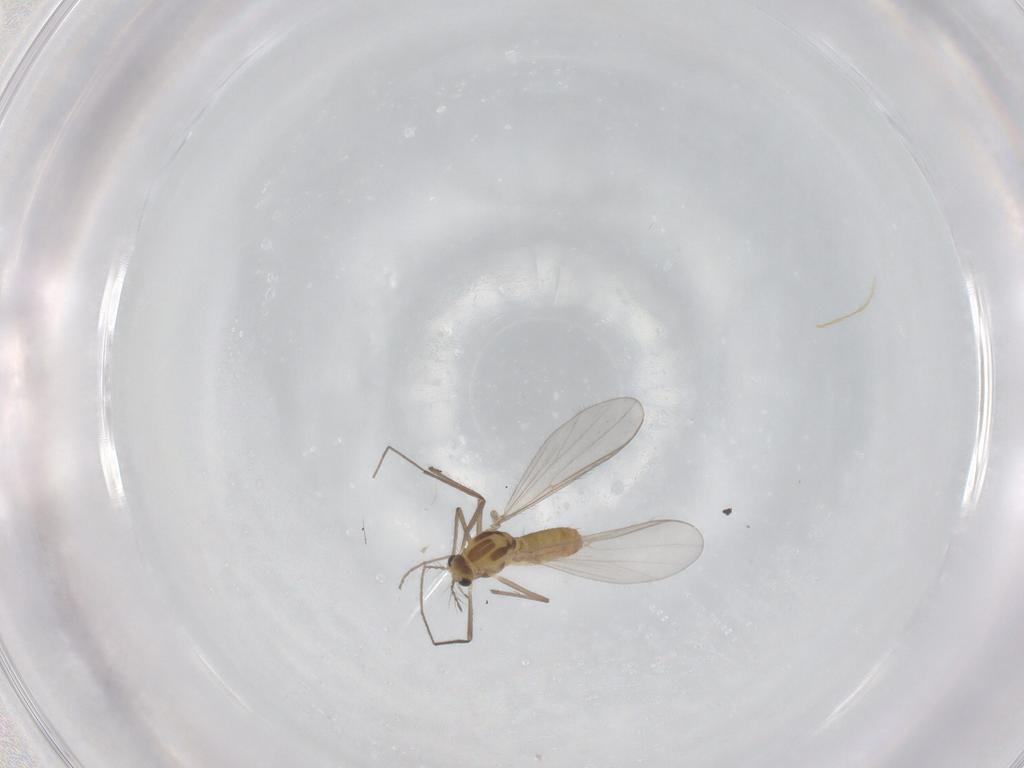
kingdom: Animalia
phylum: Arthropoda
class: Insecta
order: Diptera
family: Chironomidae
